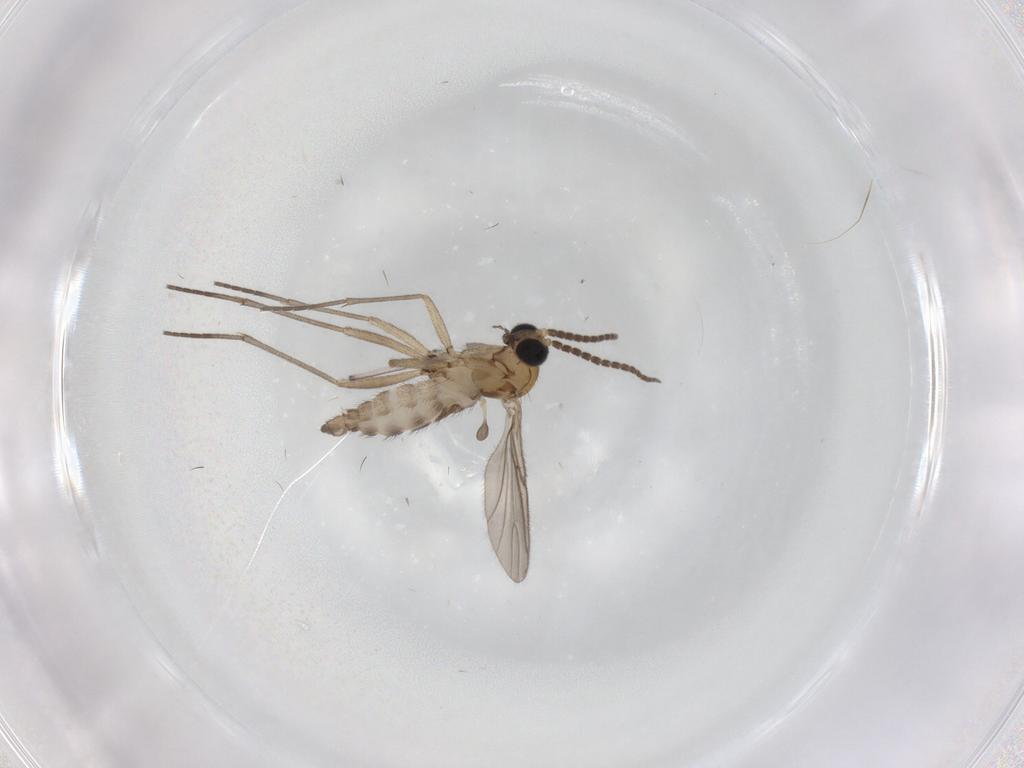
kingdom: Animalia
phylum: Arthropoda
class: Insecta
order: Diptera
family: Sciaridae
